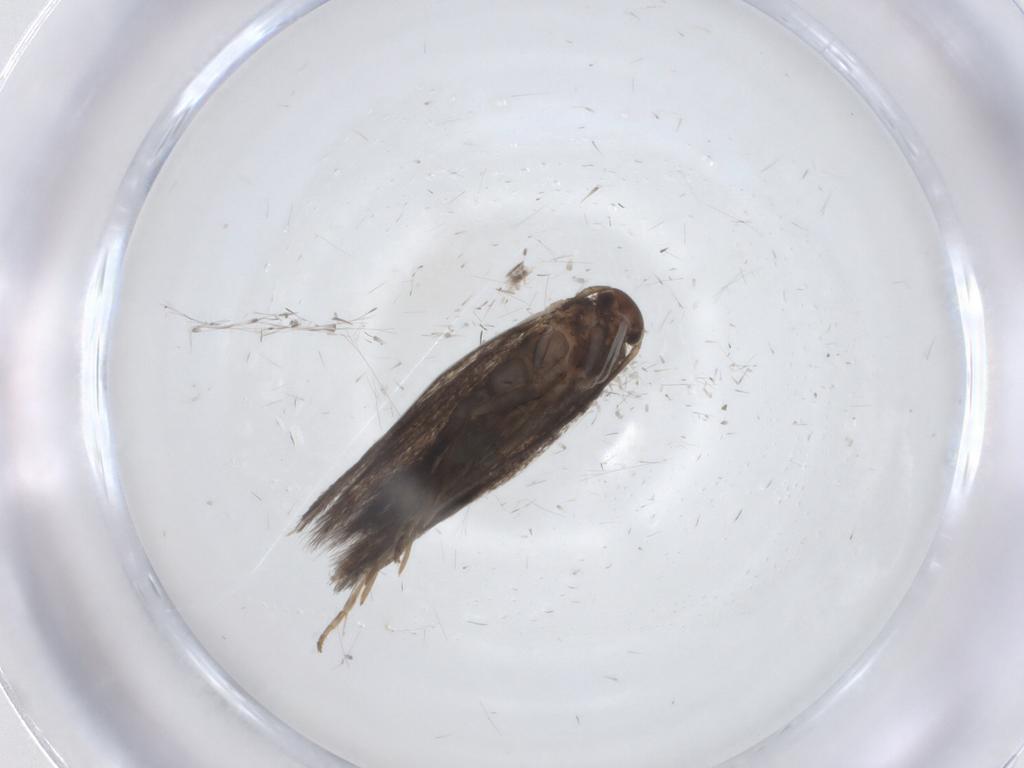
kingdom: Animalia
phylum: Arthropoda
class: Insecta
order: Lepidoptera
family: Elachistidae
